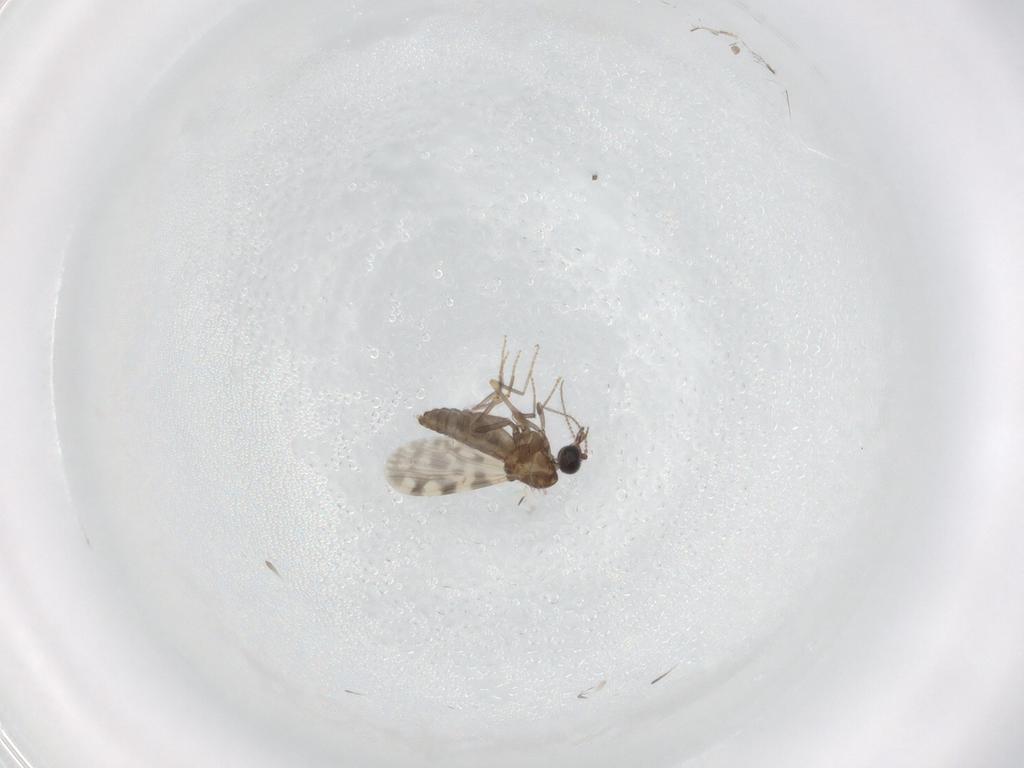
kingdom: Animalia
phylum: Arthropoda
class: Insecta
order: Diptera
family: Ceratopogonidae
